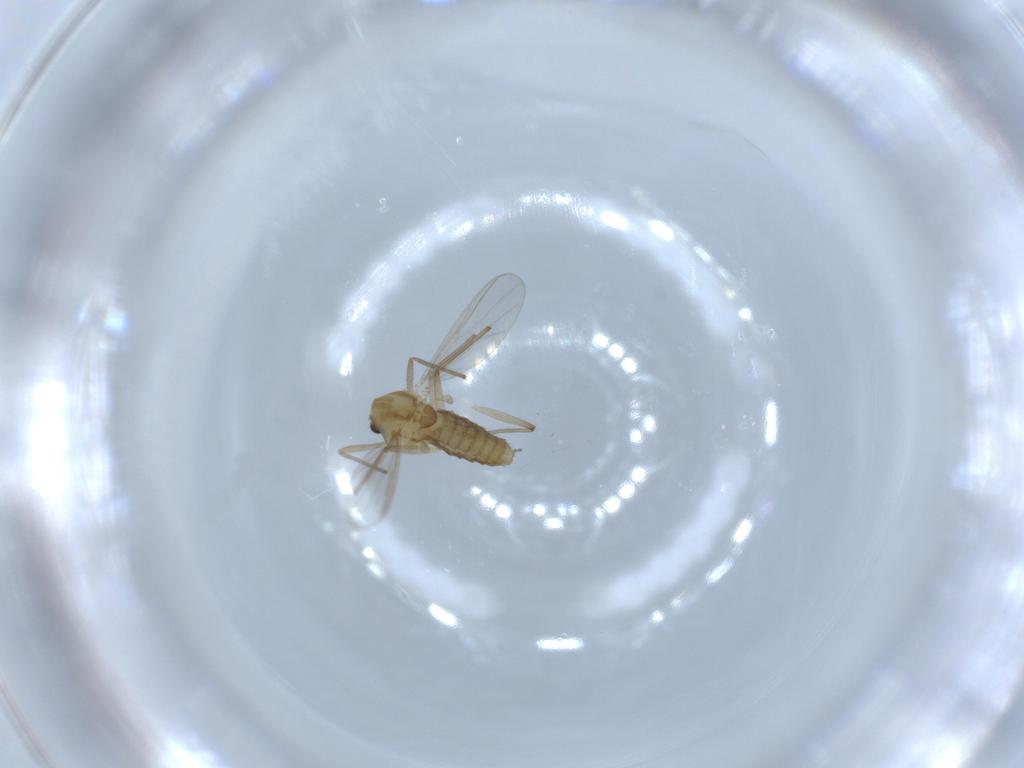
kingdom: Animalia
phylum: Arthropoda
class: Insecta
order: Diptera
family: Chironomidae
